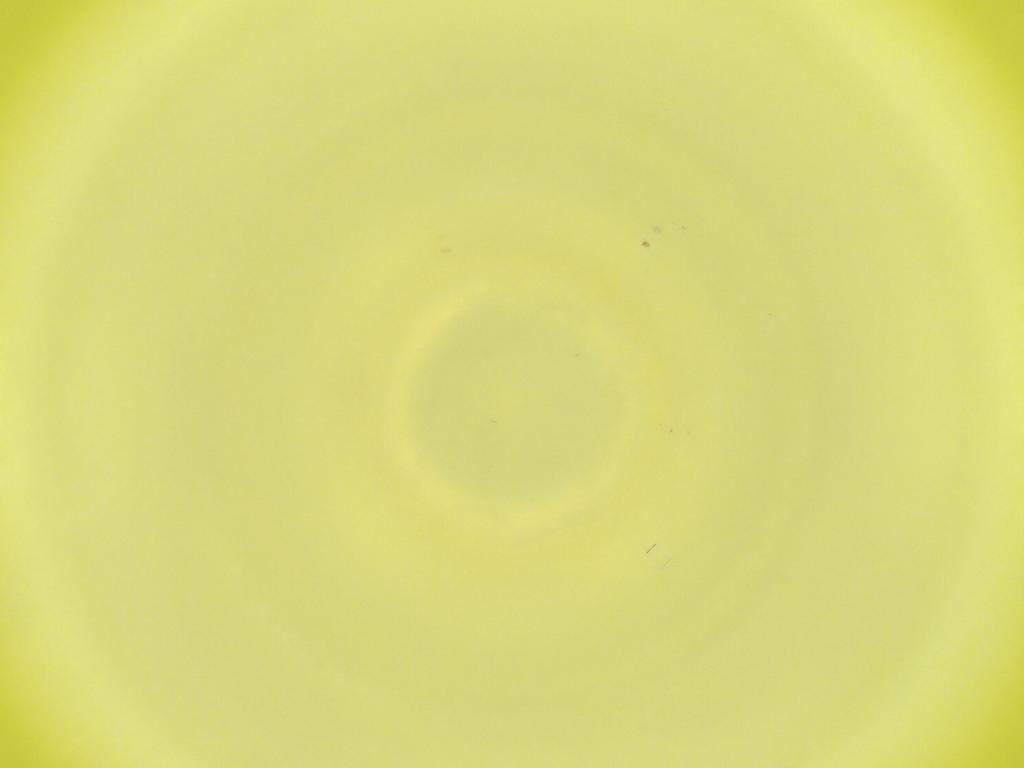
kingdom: Animalia
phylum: Arthropoda
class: Insecta
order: Diptera
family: Cecidomyiidae
